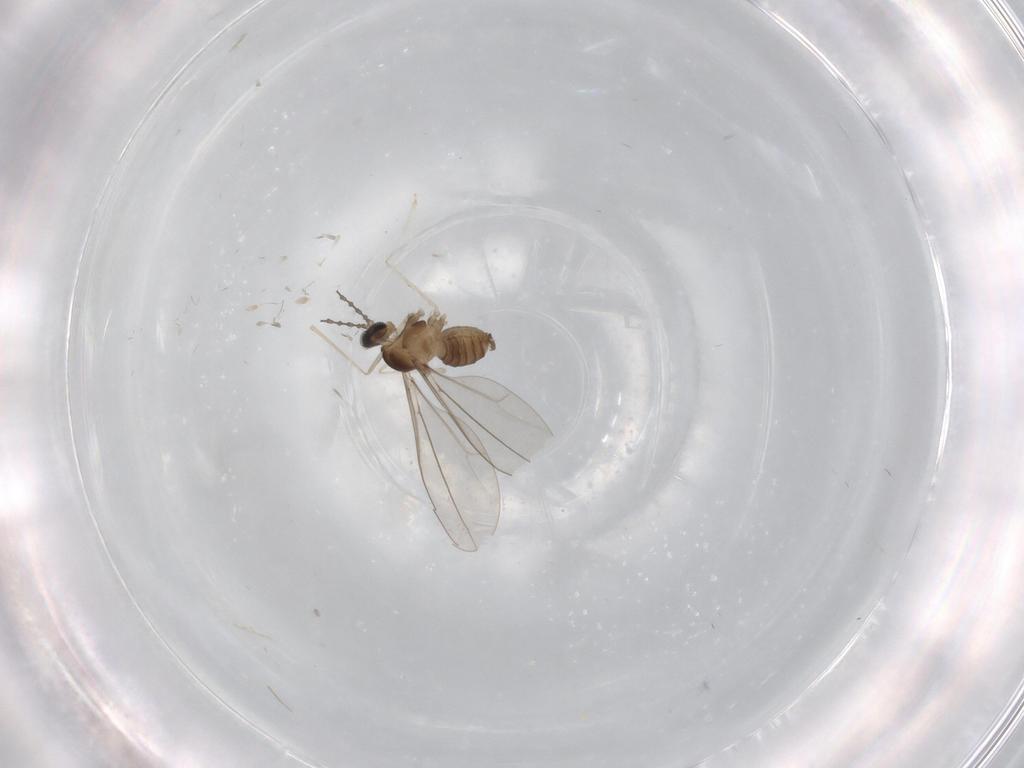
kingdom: Animalia
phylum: Arthropoda
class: Insecta
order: Diptera
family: Cecidomyiidae
